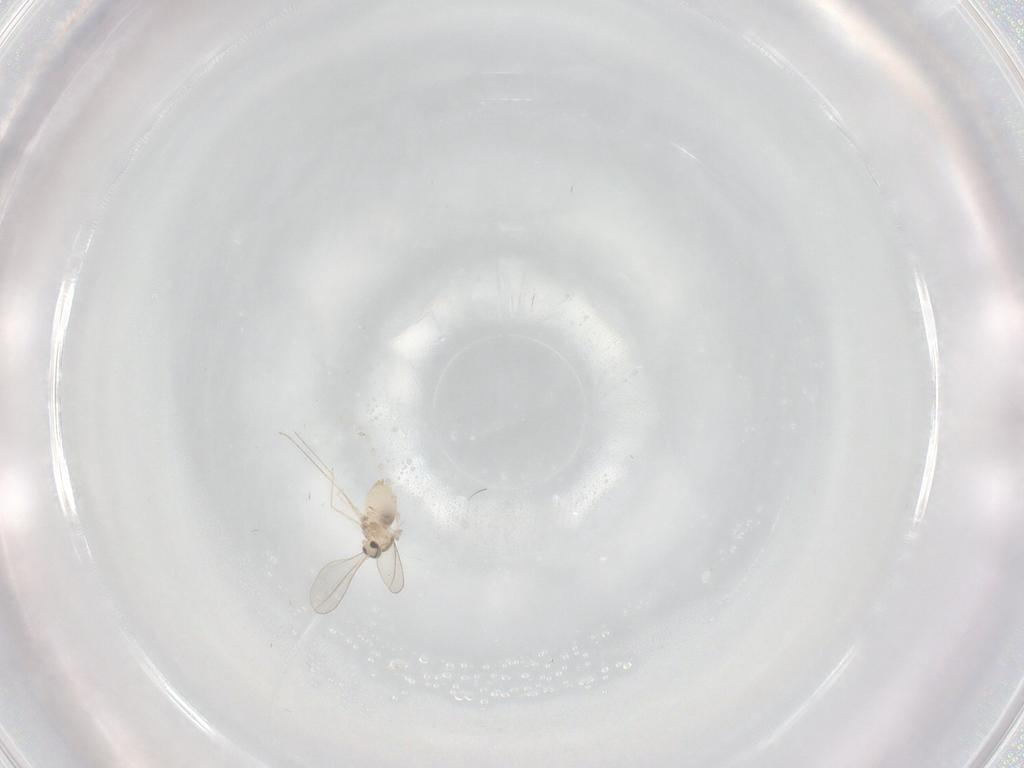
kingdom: Animalia
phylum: Arthropoda
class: Insecta
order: Diptera
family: Cecidomyiidae
